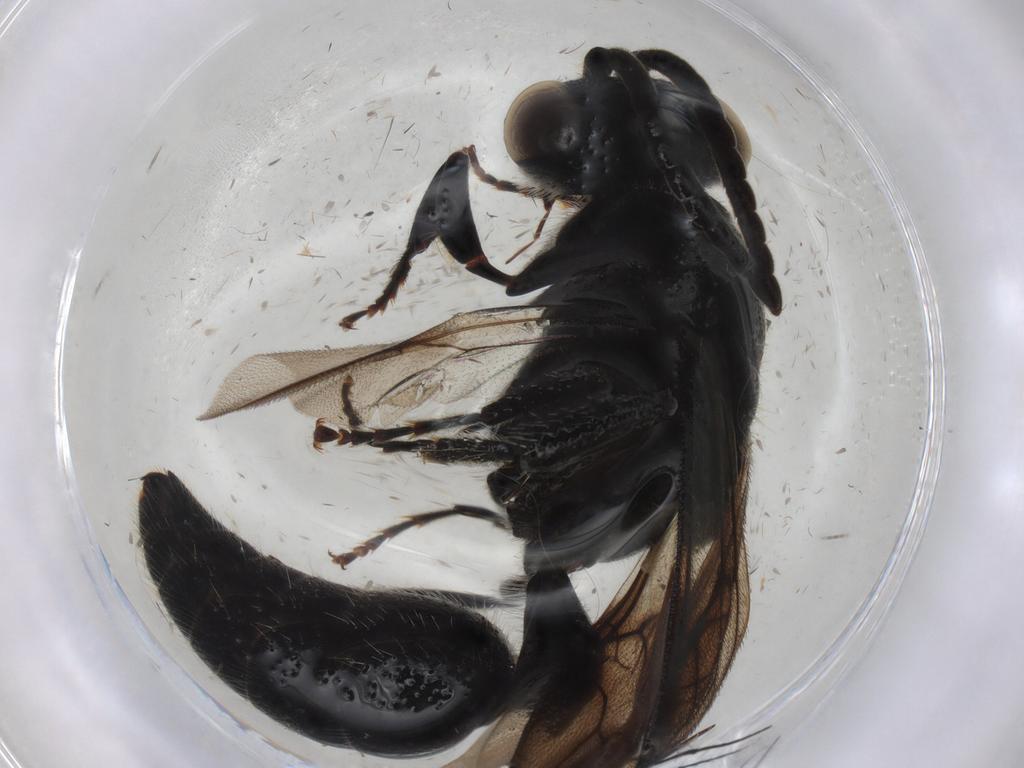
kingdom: Animalia
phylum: Arthropoda
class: Insecta
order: Hymenoptera
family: Tiphiidae
